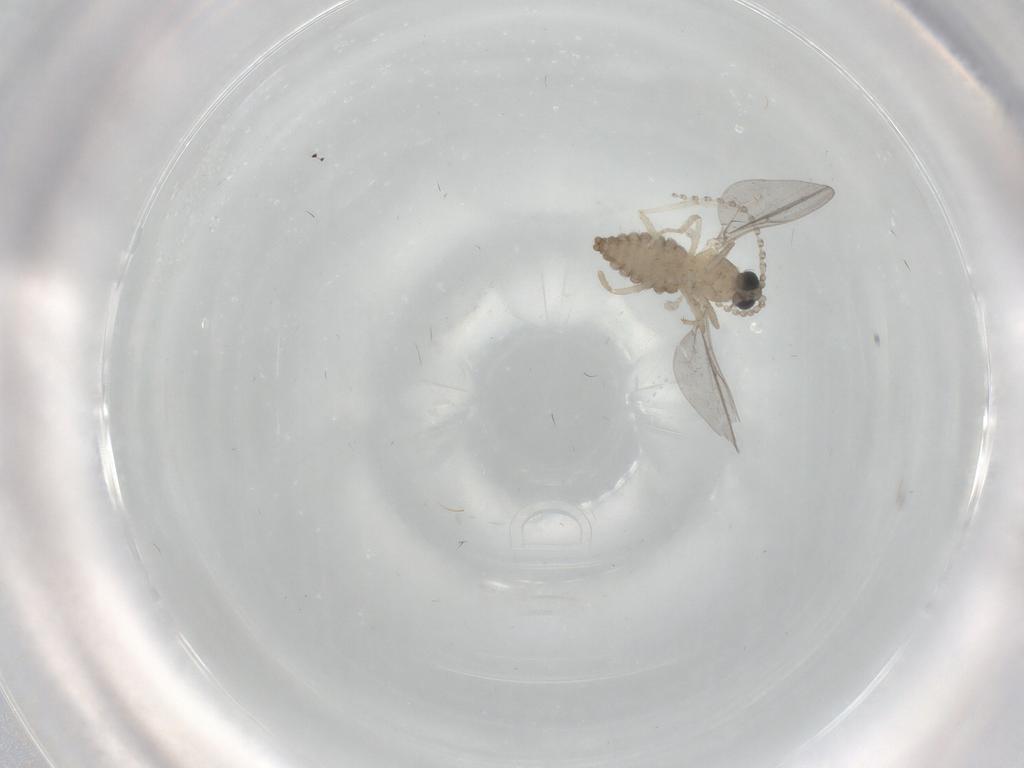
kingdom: Animalia
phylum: Arthropoda
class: Insecta
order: Diptera
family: Cecidomyiidae
